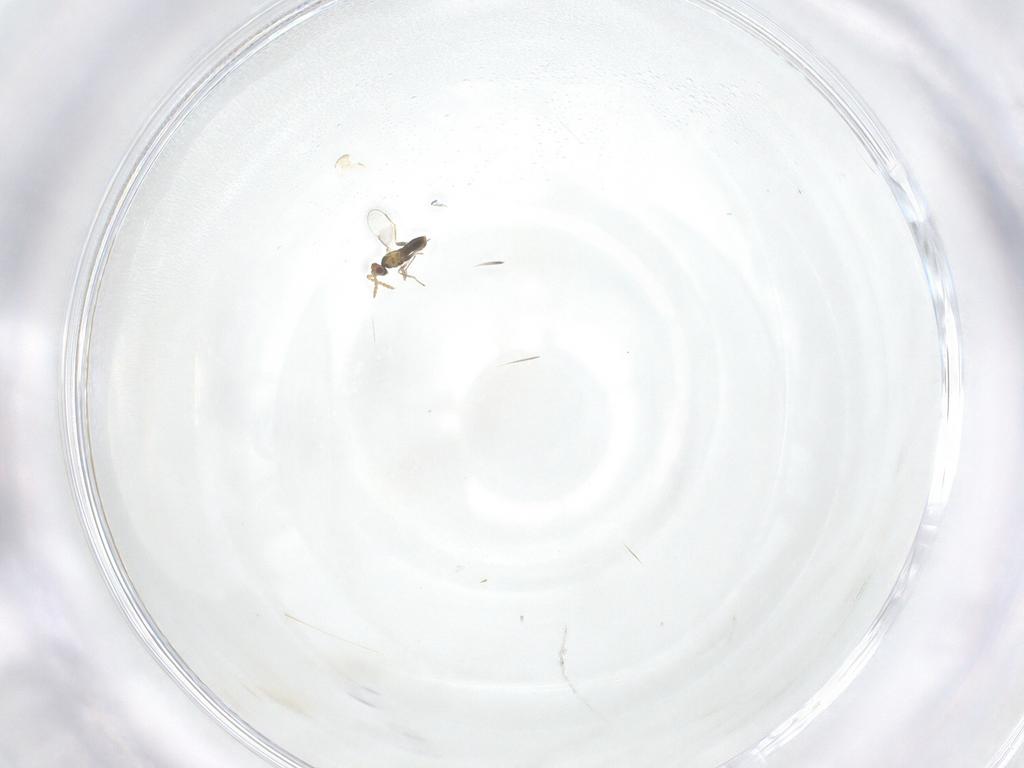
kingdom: Animalia
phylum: Arthropoda
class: Insecta
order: Hymenoptera
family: Aphelinidae
